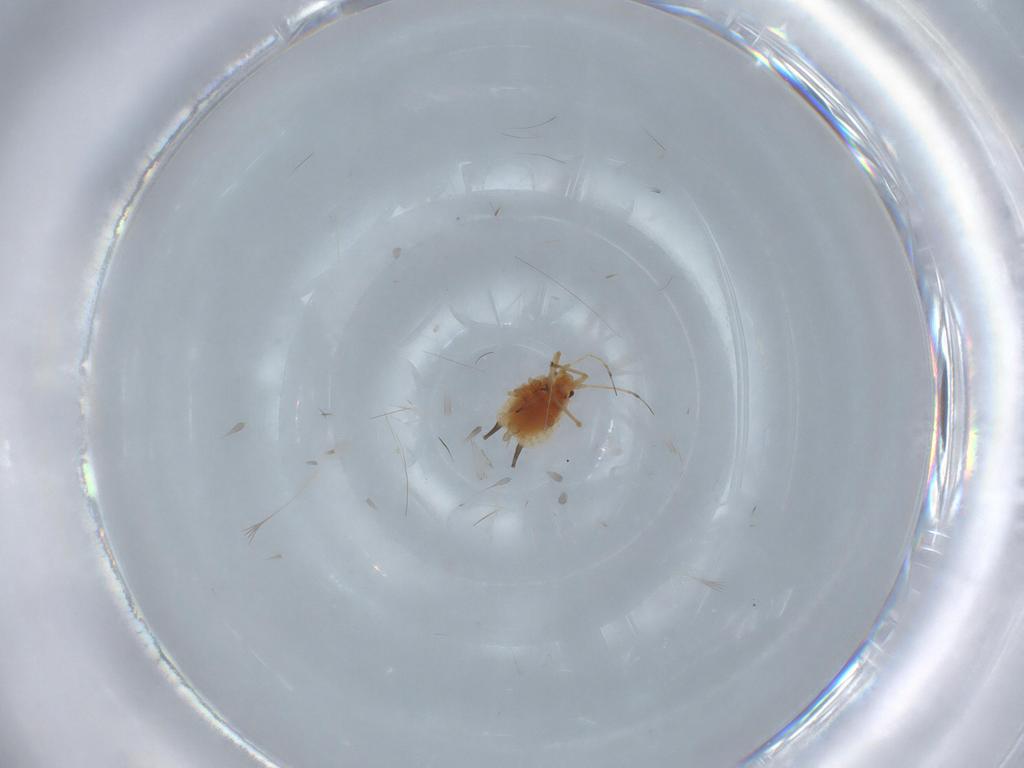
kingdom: Animalia
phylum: Arthropoda
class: Insecta
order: Hemiptera
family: Aphididae
